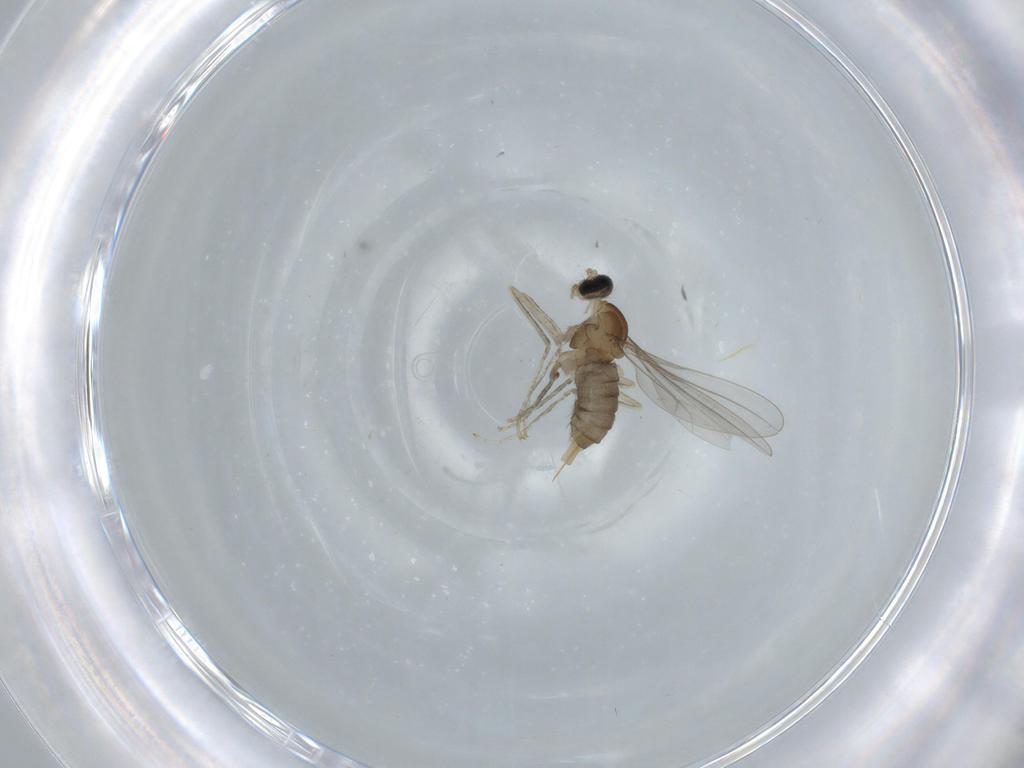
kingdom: Animalia
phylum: Arthropoda
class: Insecta
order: Diptera
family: Cecidomyiidae
